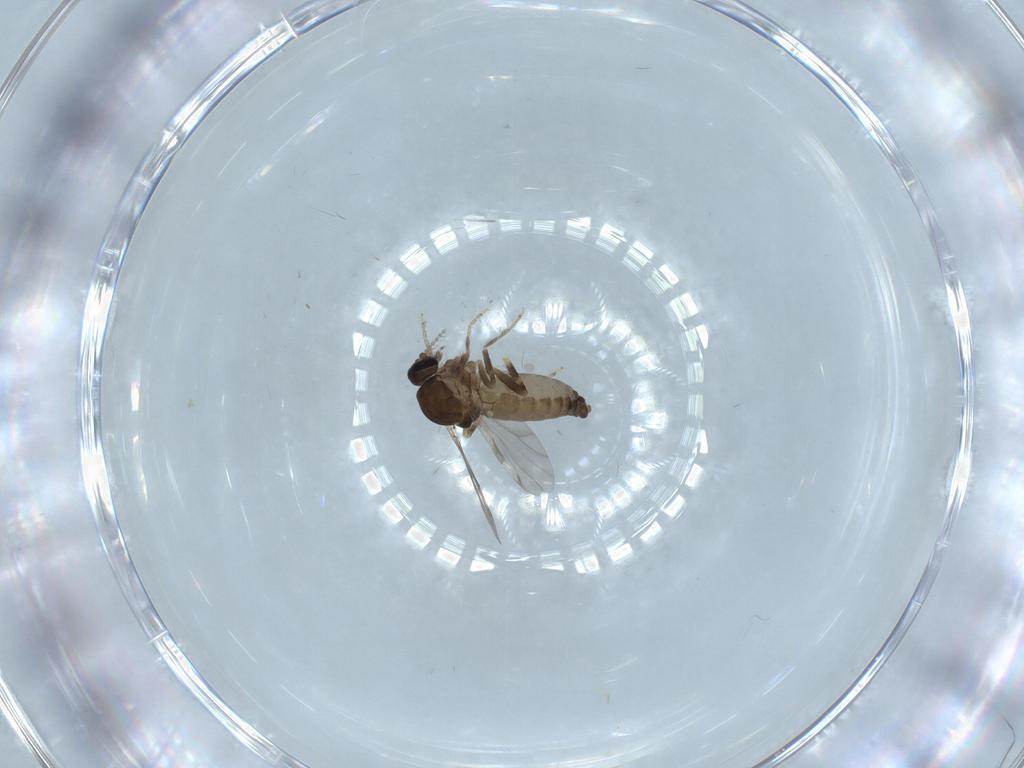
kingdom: Animalia
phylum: Arthropoda
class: Insecta
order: Diptera
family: Ceratopogonidae
